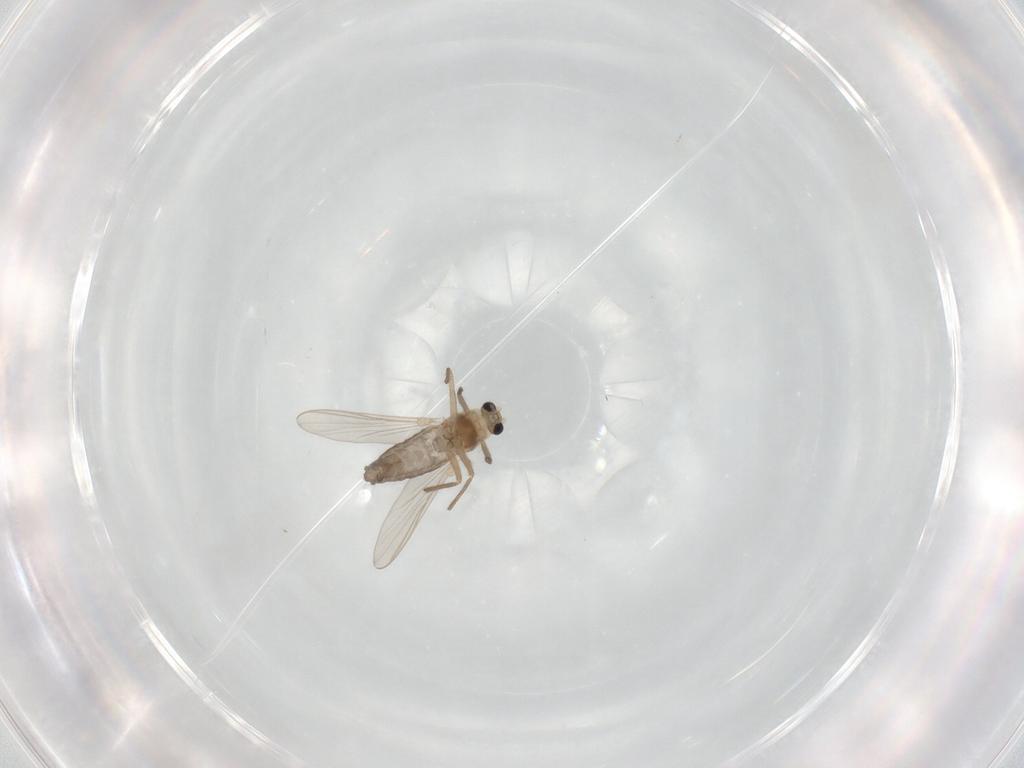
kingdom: Animalia
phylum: Arthropoda
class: Insecta
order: Diptera
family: Chironomidae
